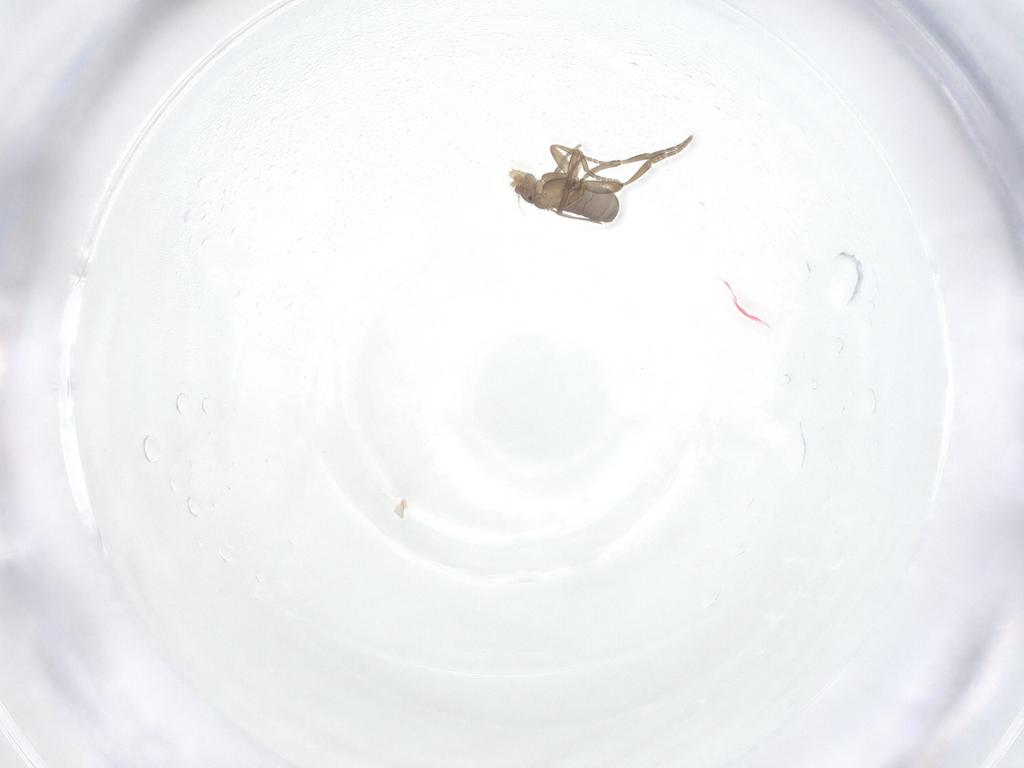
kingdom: Animalia
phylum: Arthropoda
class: Insecta
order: Diptera
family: Phoridae
